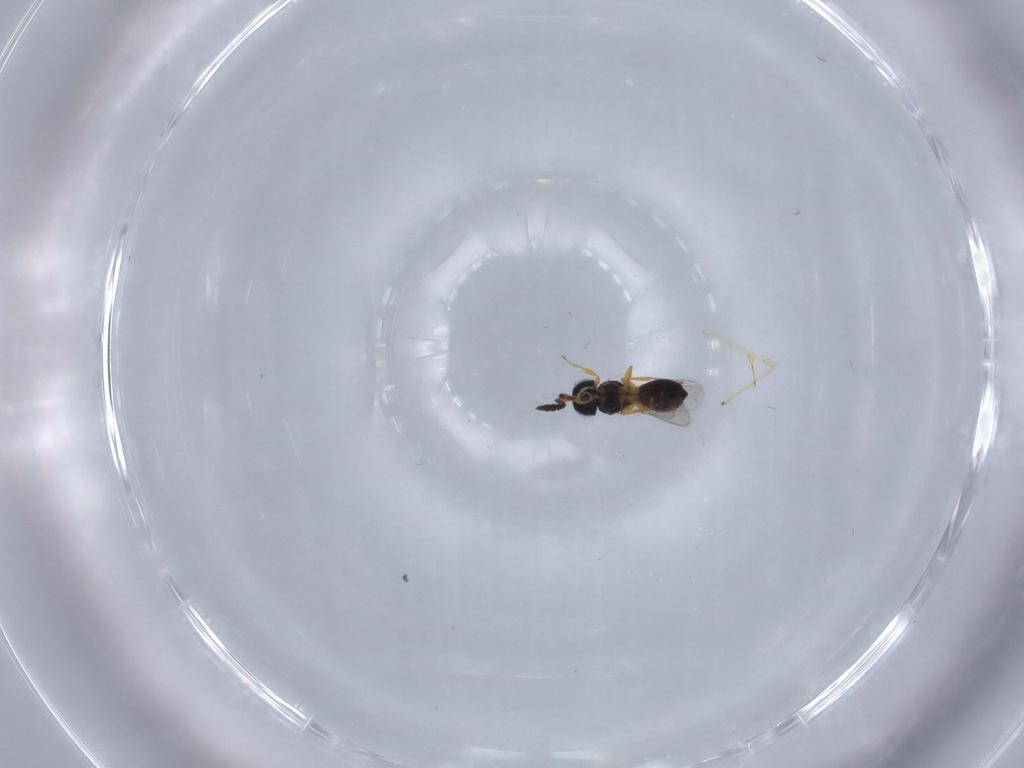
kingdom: Animalia
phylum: Arthropoda
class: Insecta
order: Hymenoptera
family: Scelionidae
